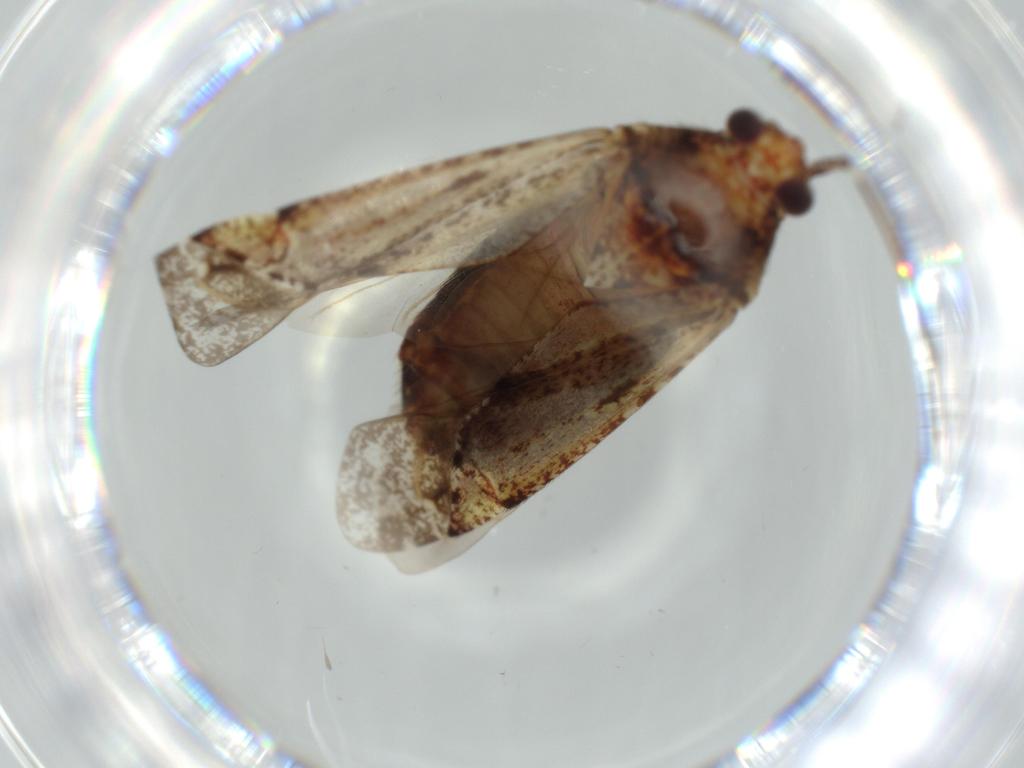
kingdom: Animalia
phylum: Arthropoda
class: Insecta
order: Hemiptera
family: Miridae
